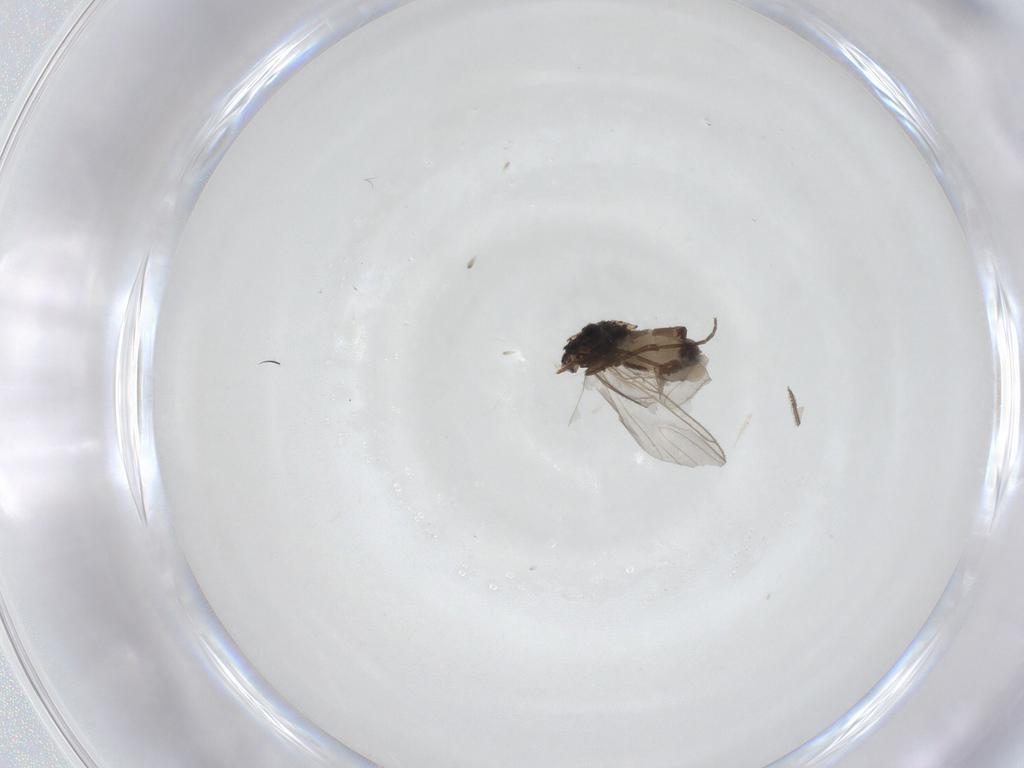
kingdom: Animalia
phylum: Arthropoda
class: Insecta
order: Diptera
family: Sciaridae
